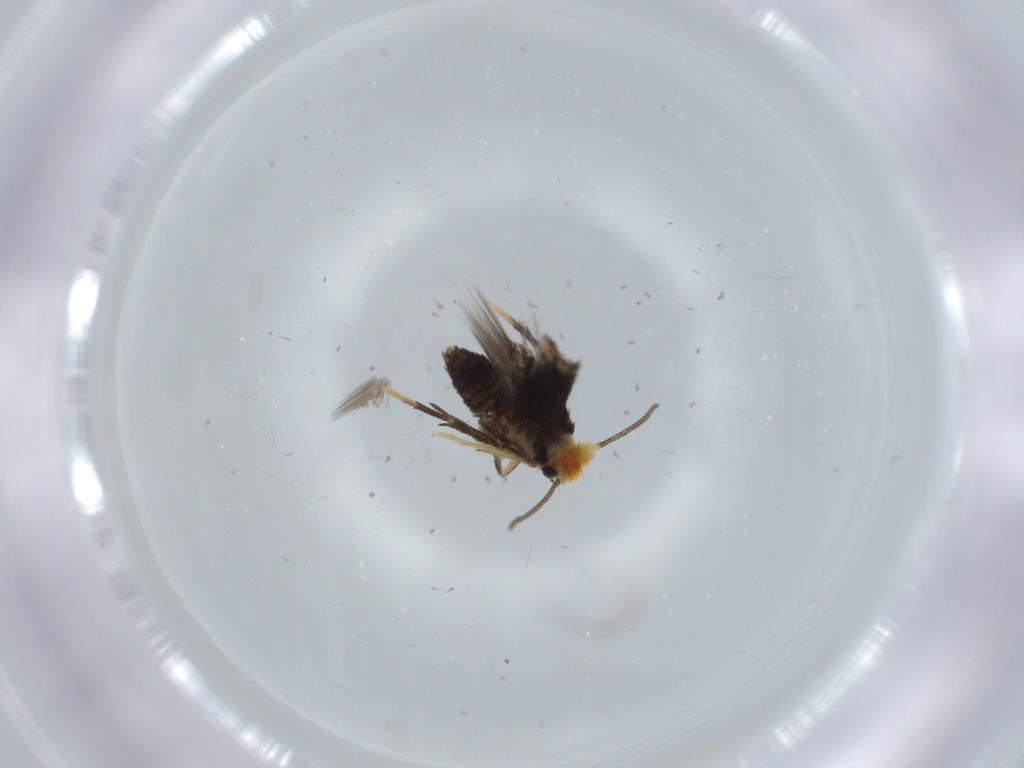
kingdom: Animalia
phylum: Arthropoda
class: Insecta
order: Lepidoptera
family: Nepticulidae
